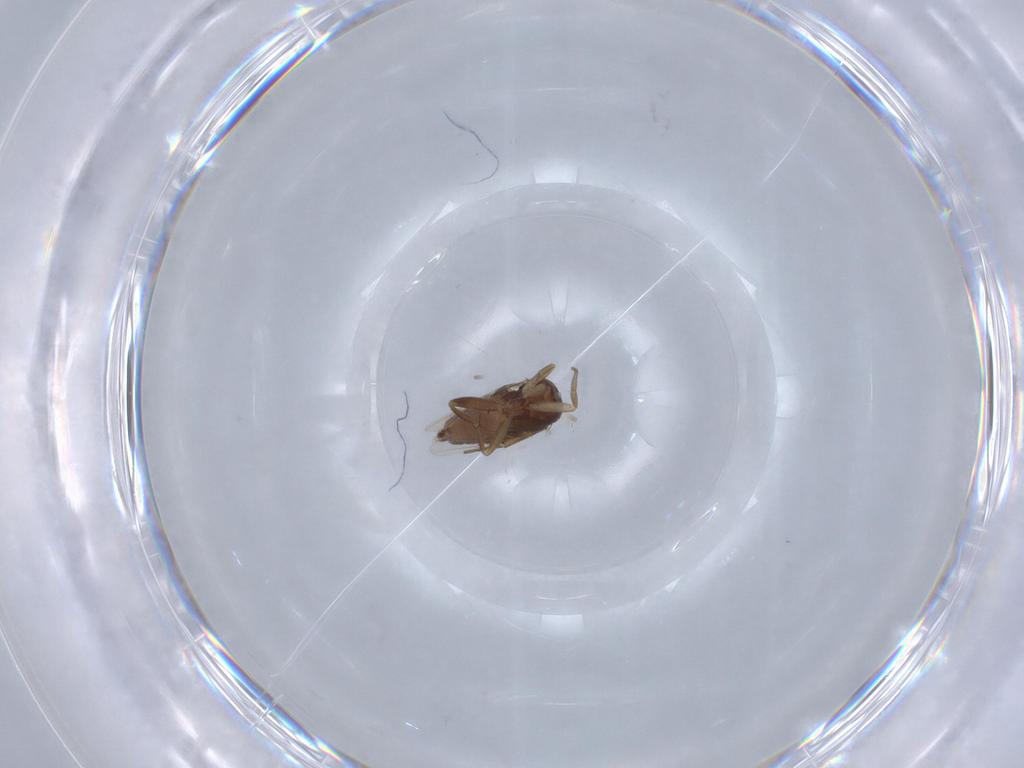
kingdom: Animalia
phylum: Arthropoda
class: Insecta
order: Diptera
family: Phoridae
